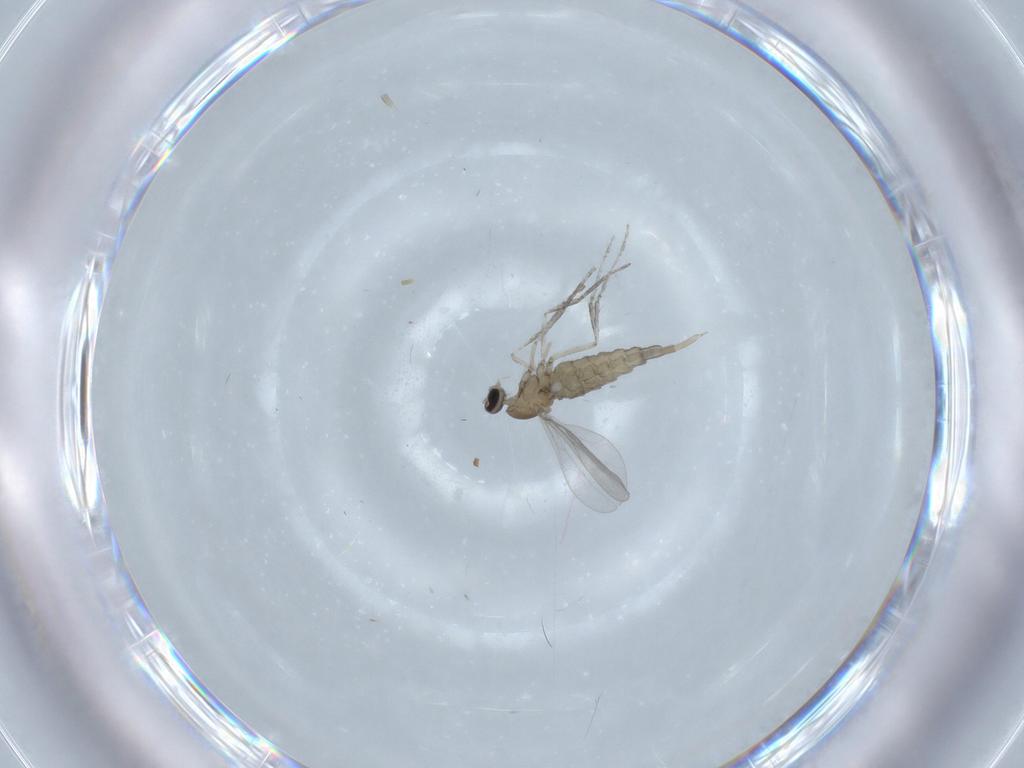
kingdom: Animalia
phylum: Arthropoda
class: Insecta
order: Diptera
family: Cecidomyiidae
